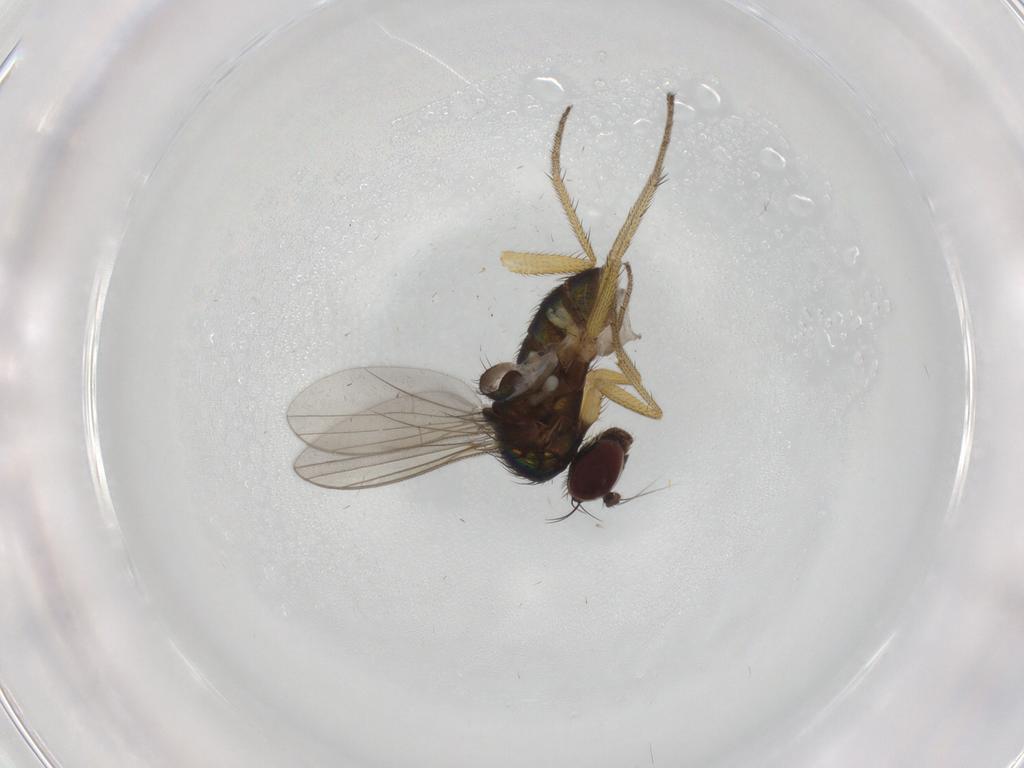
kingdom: Animalia
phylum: Arthropoda
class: Insecta
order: Diptera
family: Dolichopodidae
